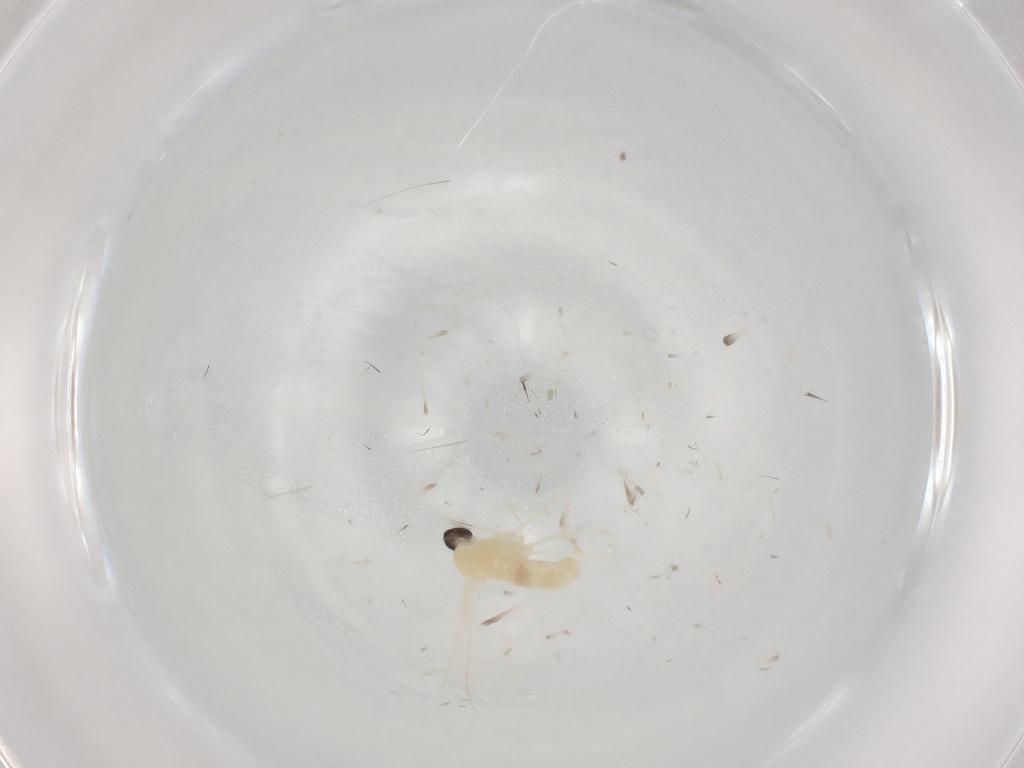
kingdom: Animalia
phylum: Arthropoda
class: Insecta
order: Diptera
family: Cecidomyiidae
